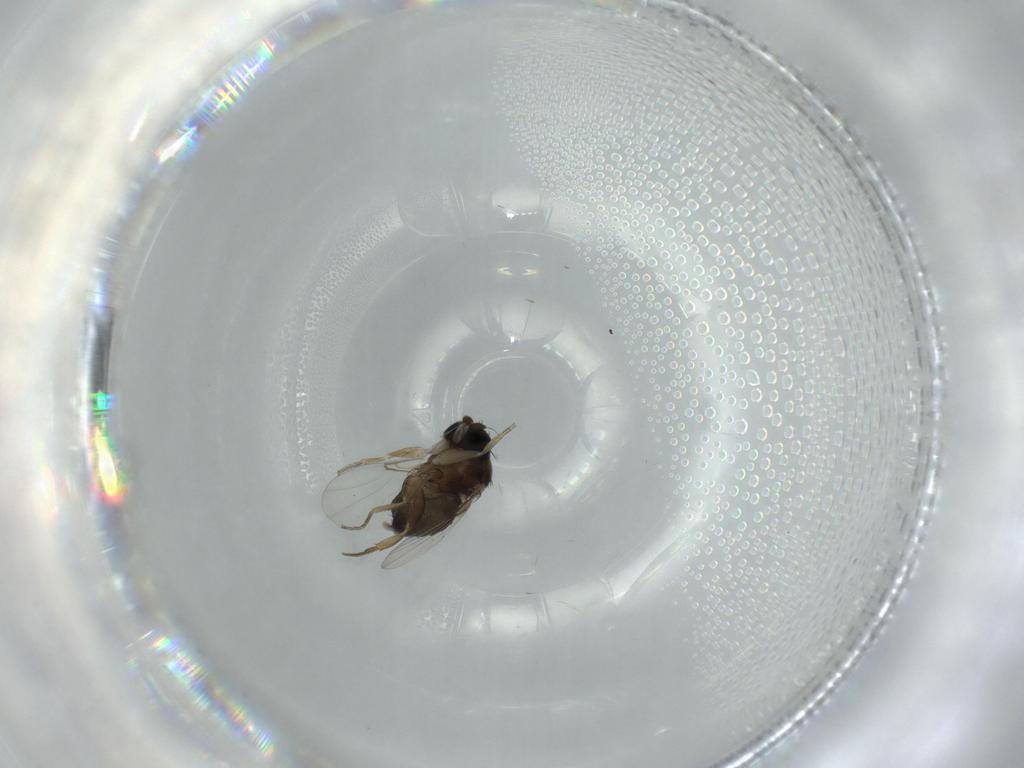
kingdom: Animalia
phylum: Arthropoda
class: Insecta
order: Diptera
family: Phoridae
